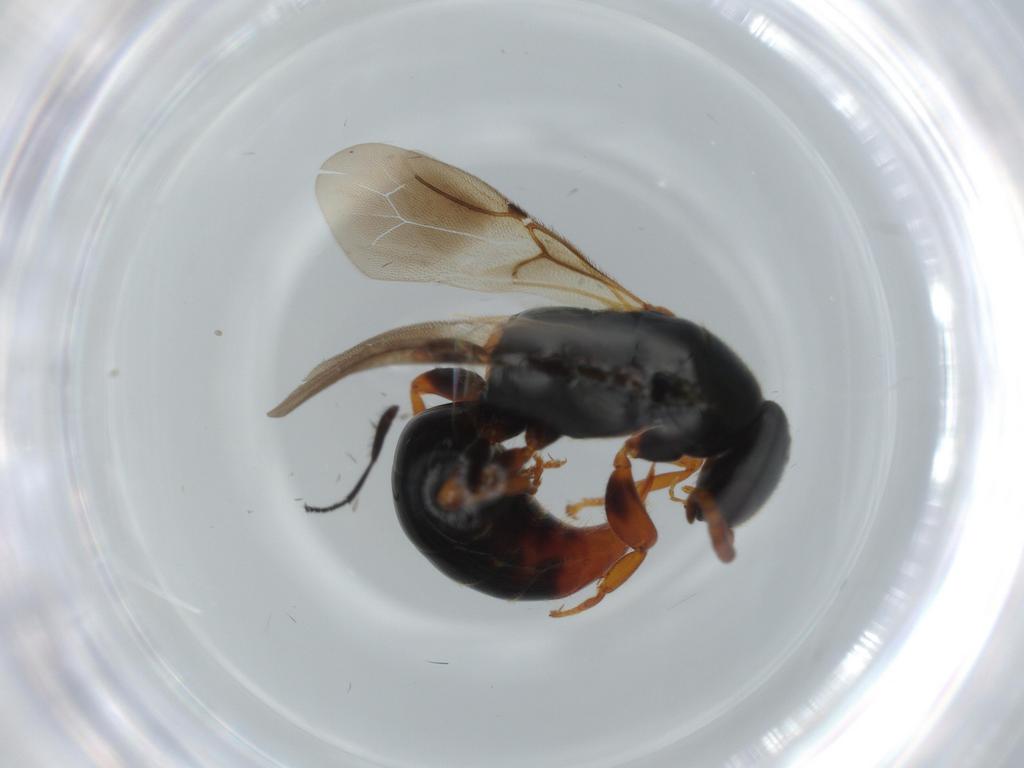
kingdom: Animalia
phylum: Arthropoda
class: Insecta
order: Hymenoptera
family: Bethylidae
